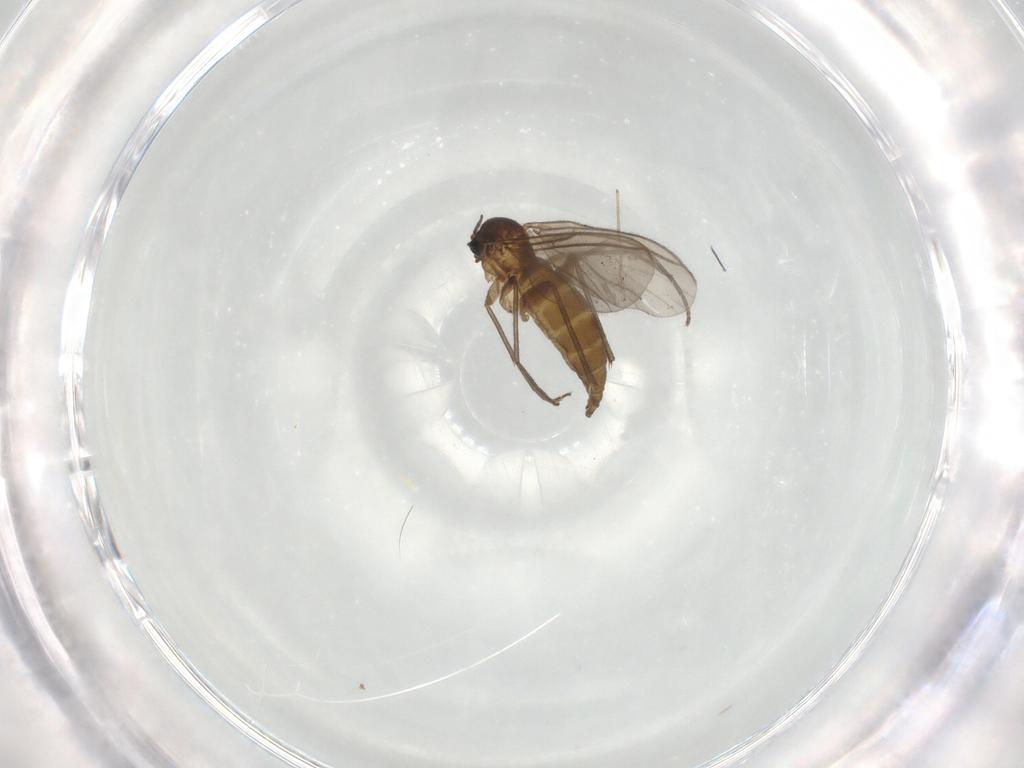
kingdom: Animalia
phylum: Arthropoda
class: Insecta
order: Diptera
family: Sciaridae
